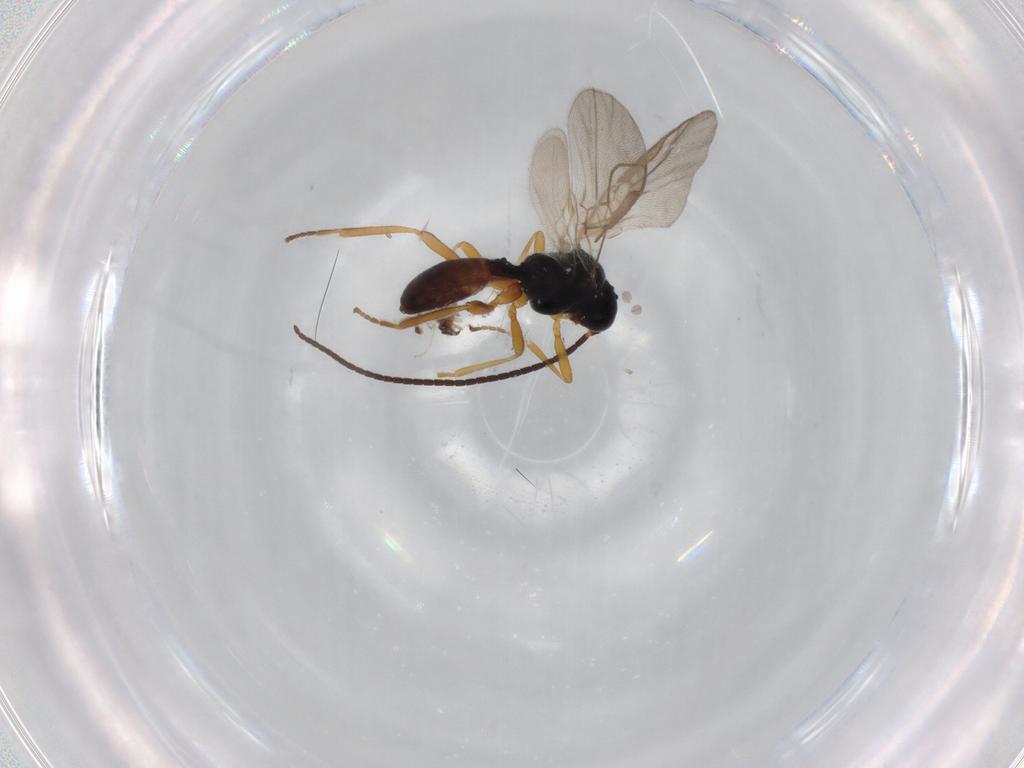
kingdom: Animalia
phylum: Arthropoda
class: Insecta
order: Hymenoptera
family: Braconidae
